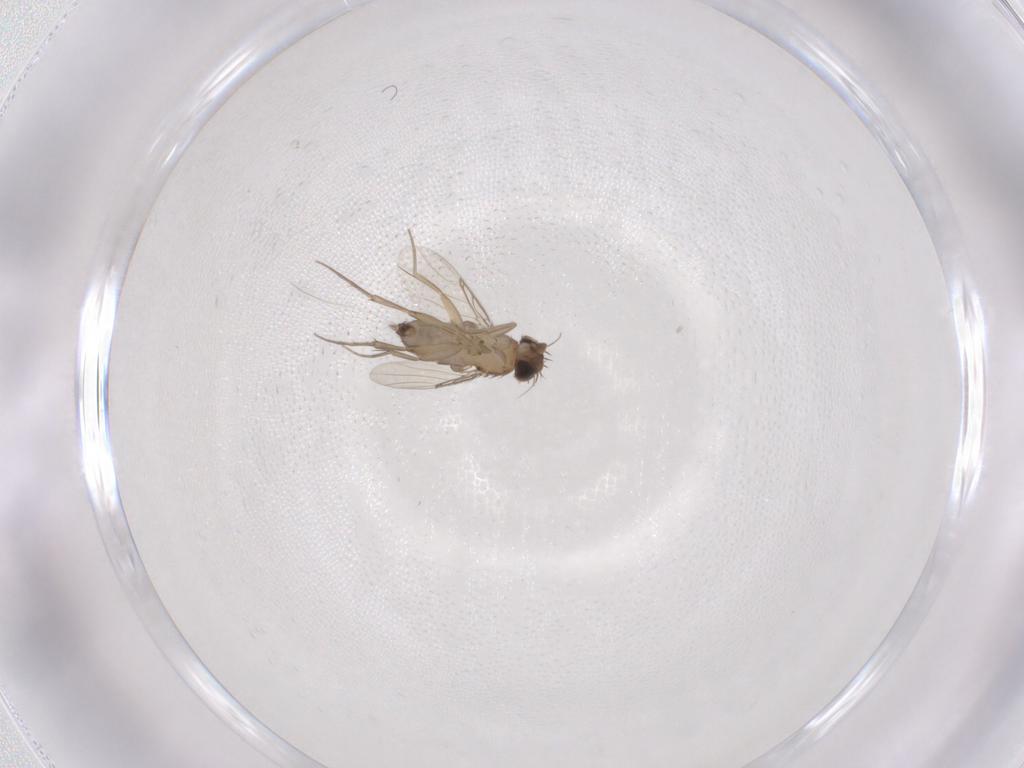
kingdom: Animalia
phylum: Arthropoda
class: Insecta
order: Diptera
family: Phoridae
